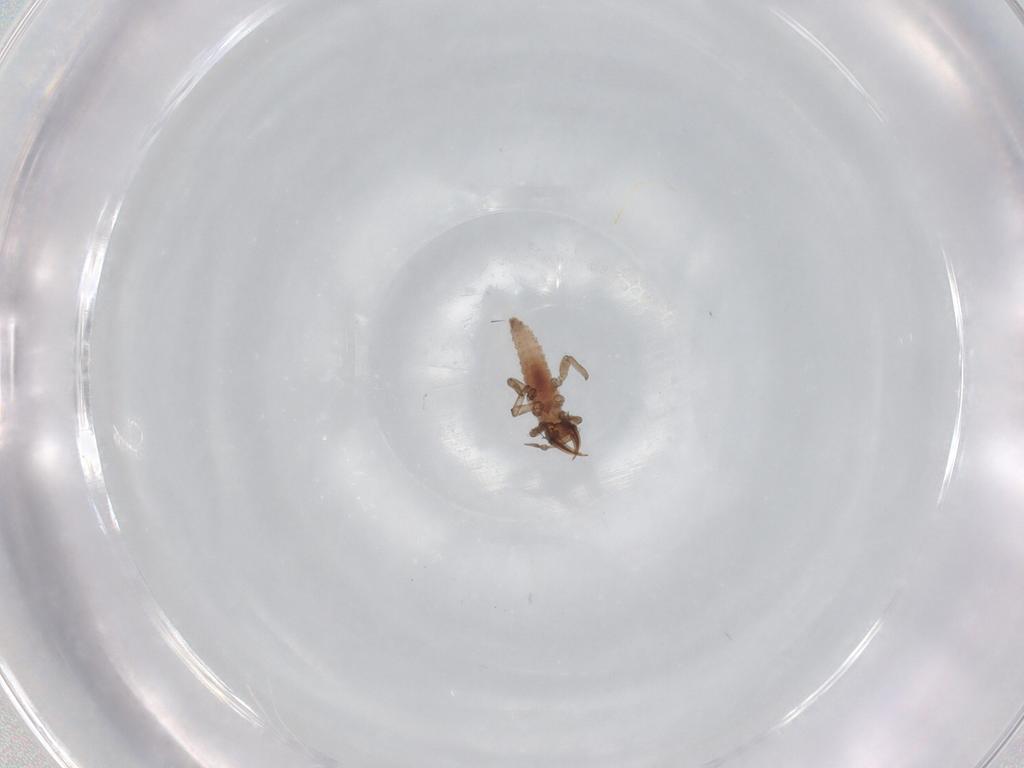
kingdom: Animalia
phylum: Arthropoda
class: Insecta
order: Neuroptera
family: Hemerobiidae
